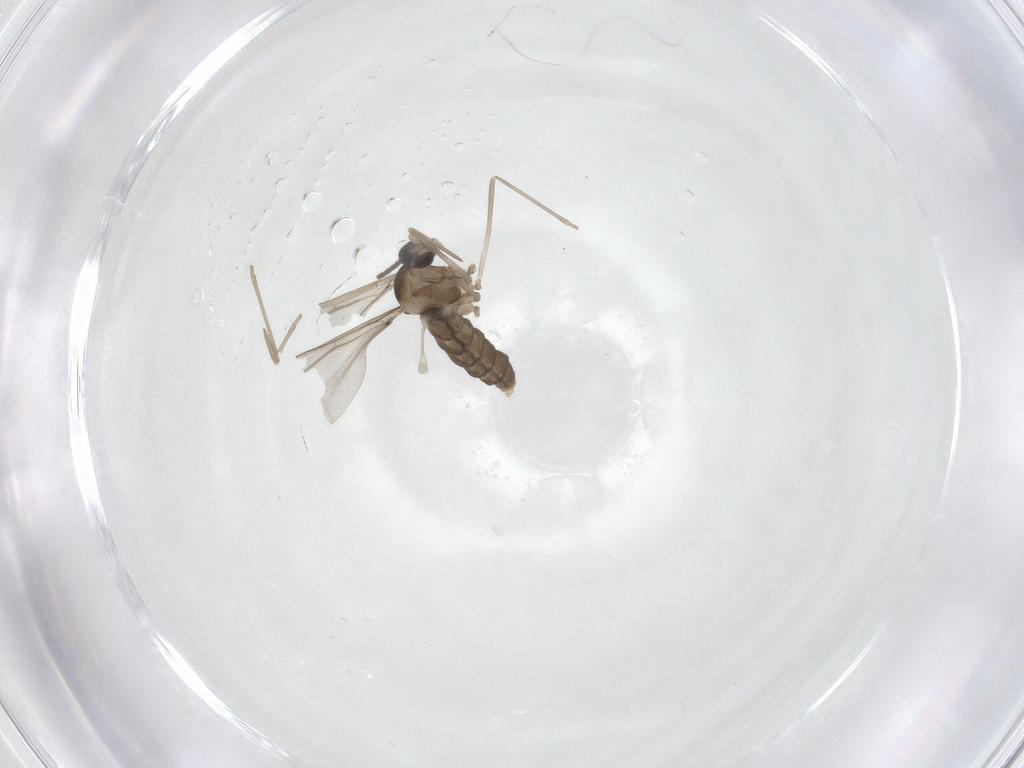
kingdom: Animalia
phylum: Arthropoda
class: Insecta
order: Diptera
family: Cecidomyiidae
